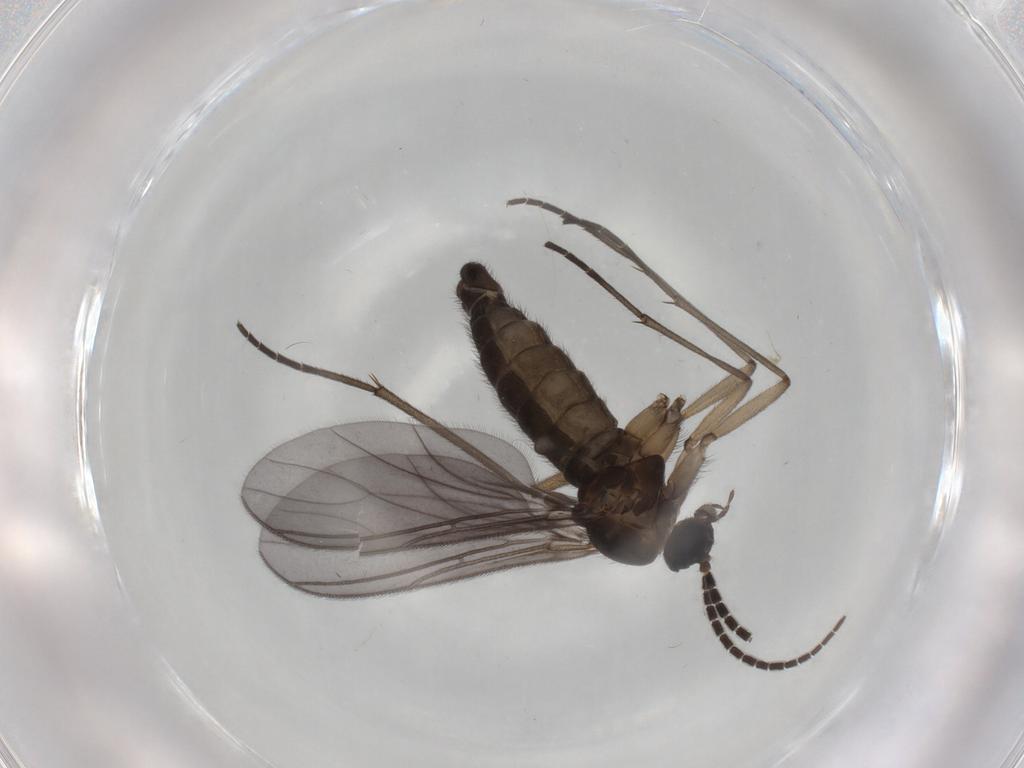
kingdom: Animalia
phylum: Arthropoda
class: Insecta
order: Diptera
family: Sciaridae
